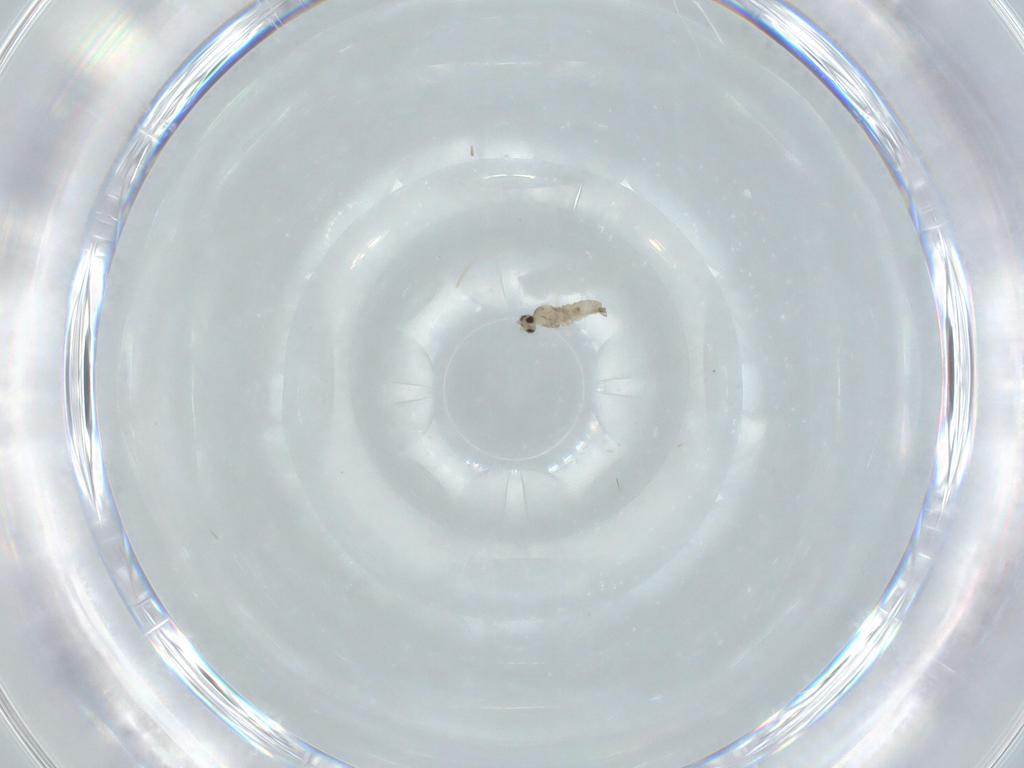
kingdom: Animalia
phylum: Arthropoda
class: Insecta
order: Diptera
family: Cecidomyiidae
